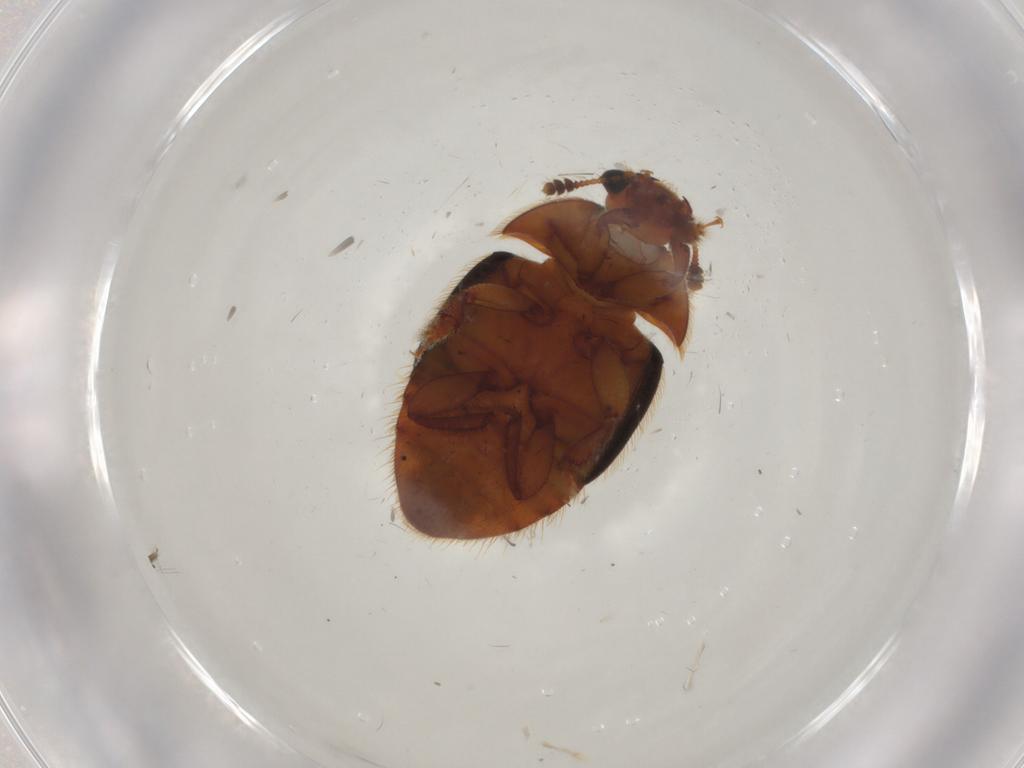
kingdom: Animalia
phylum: Arthropoda
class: Insecta
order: Coleoptera
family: Nitidulidae
